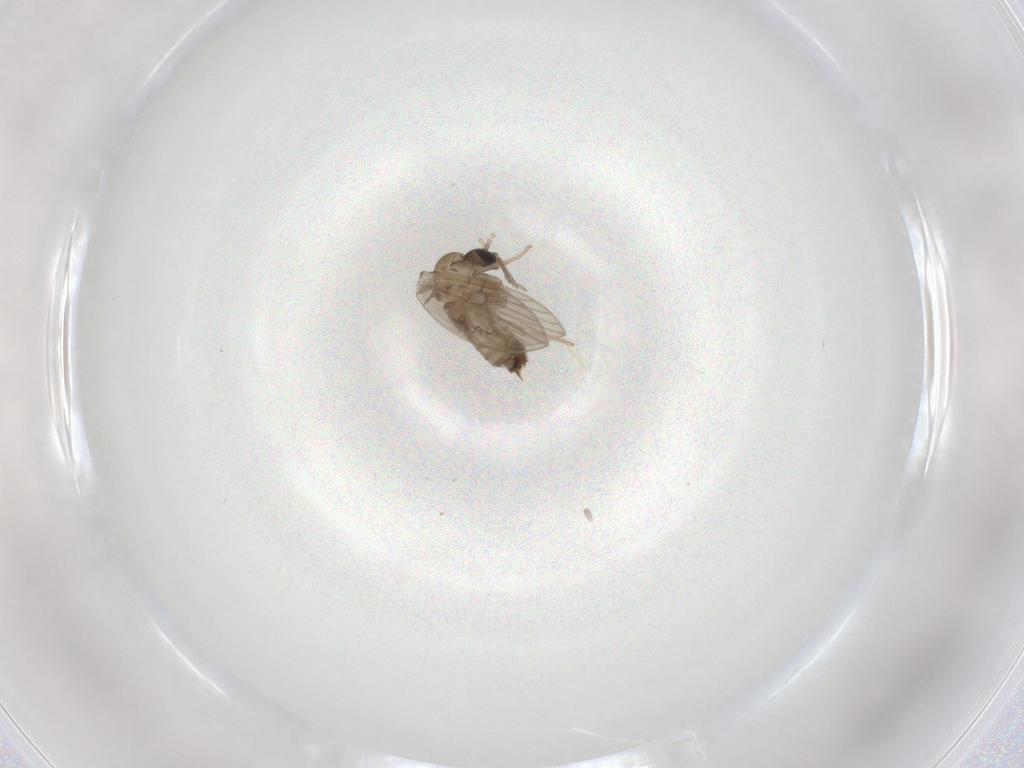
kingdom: Animalia
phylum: Arthropoda
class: Insecta
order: Diptera
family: Psychodidae
